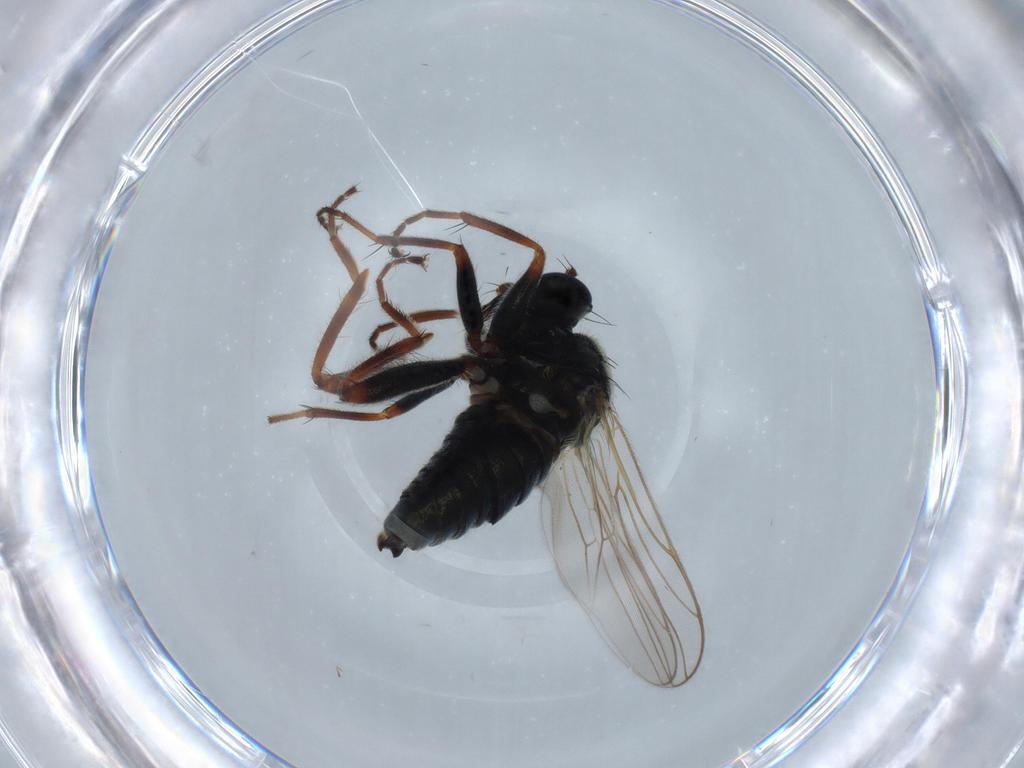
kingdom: Animalia
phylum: Arthropoda
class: Insecta
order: Diptera
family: Hybotidae
